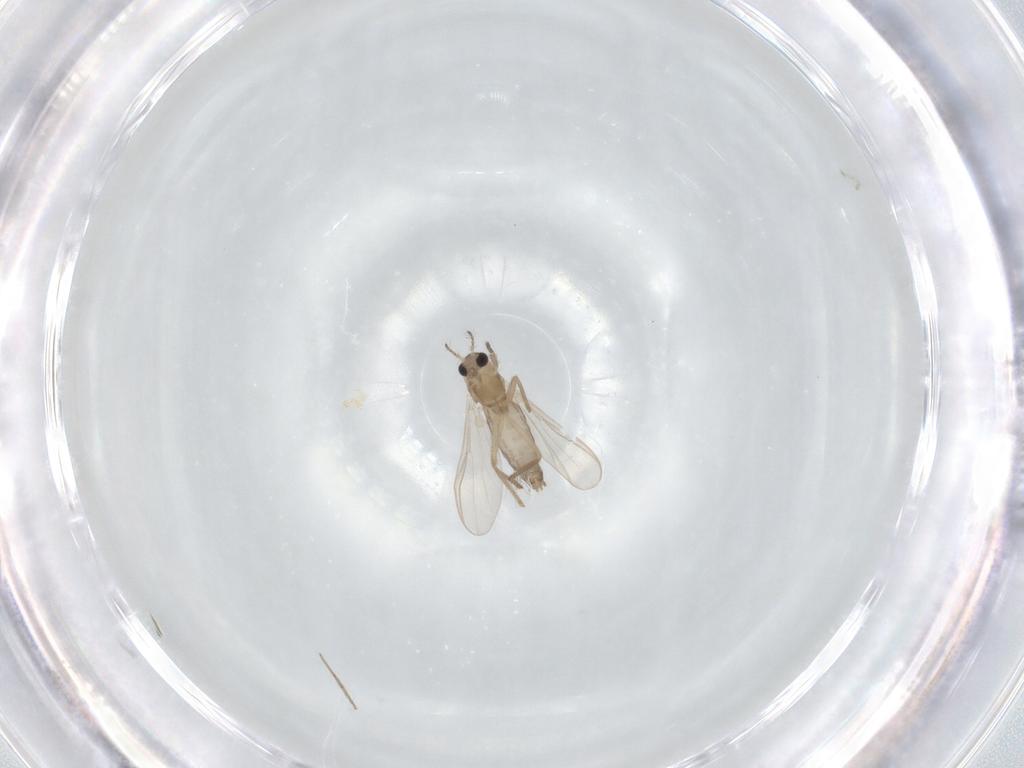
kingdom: Animalia
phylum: Arthropoda
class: Insecta
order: Diptera
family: Chironomidae
